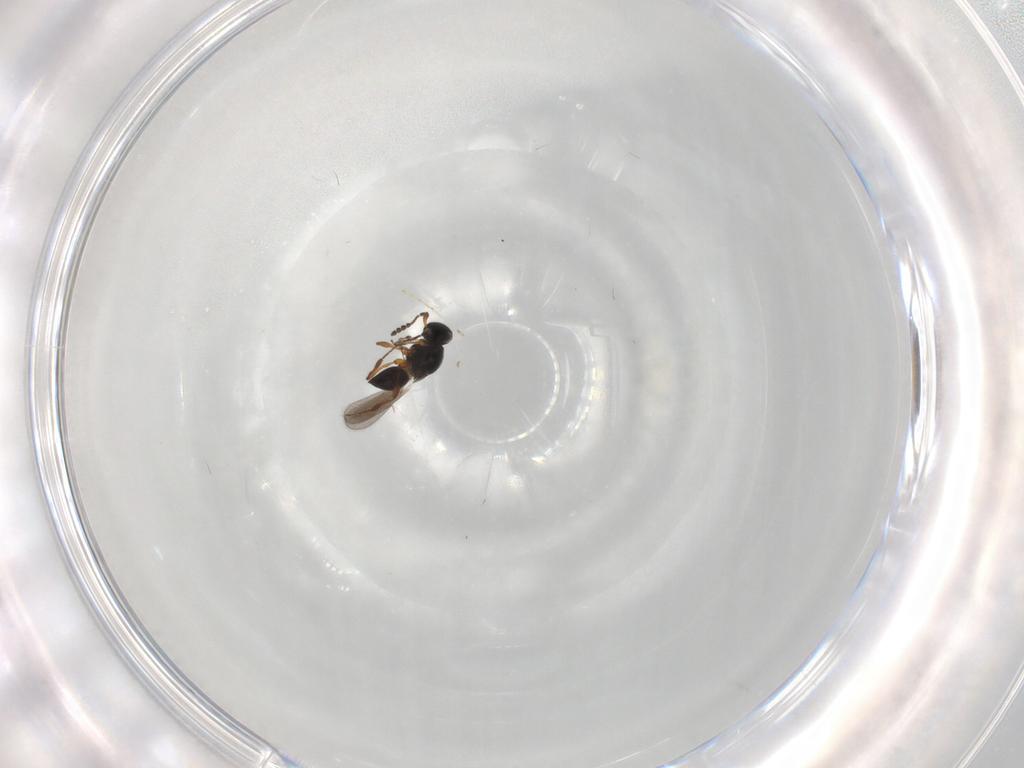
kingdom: Animalia
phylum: Arthropoda
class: Insecta
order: Hymenoptera
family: Platygastridae
